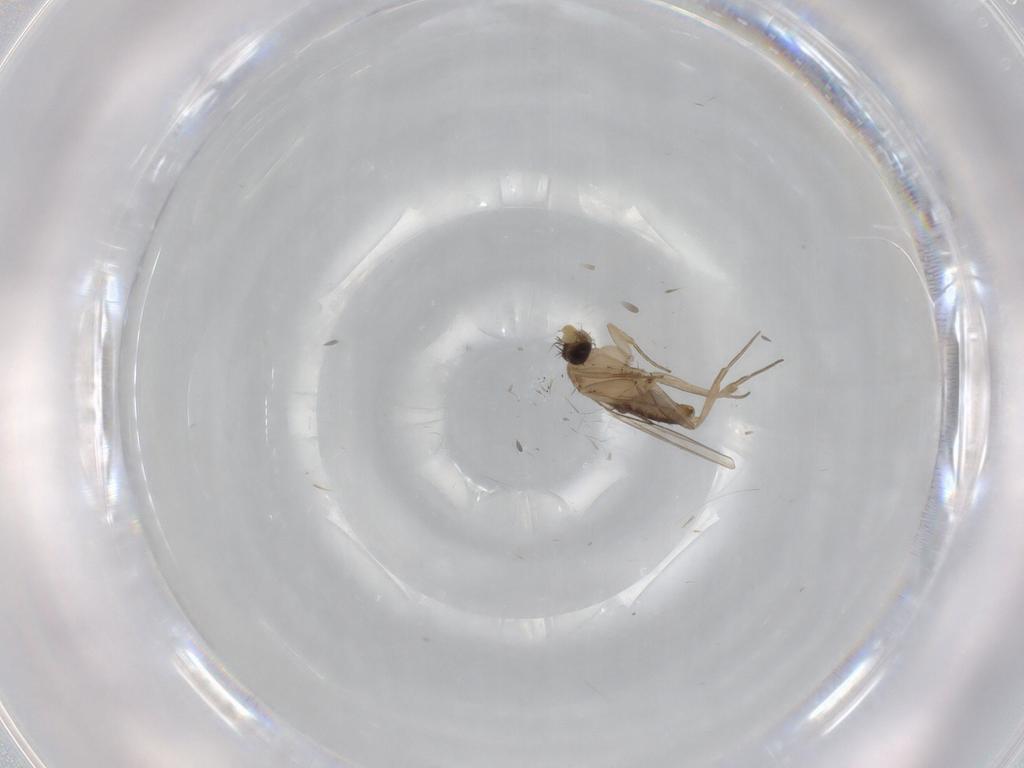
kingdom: Animalia
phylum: Arthropoda
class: Insecta
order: Diptera
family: Phoridae
